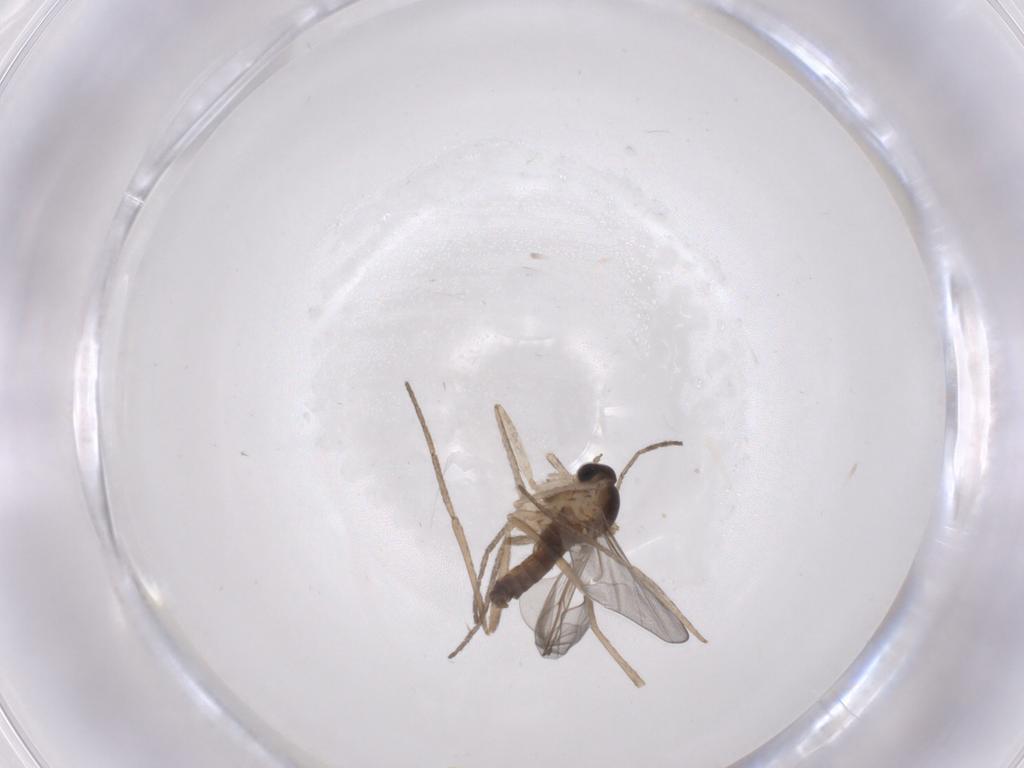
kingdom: Animalia
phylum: Arthropoda
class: Insecta
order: Diptera
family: Cecidomyiidae
